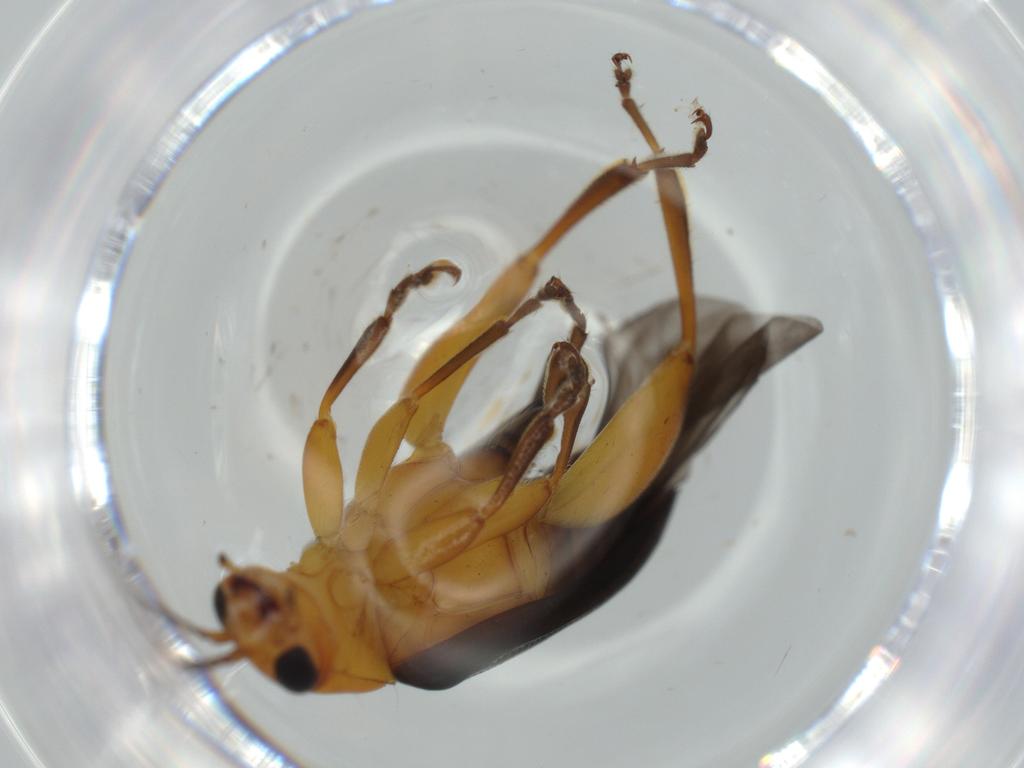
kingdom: Animalia
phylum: Arthropoda
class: Insecta
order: Coleoptera
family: Chrysomelidae
